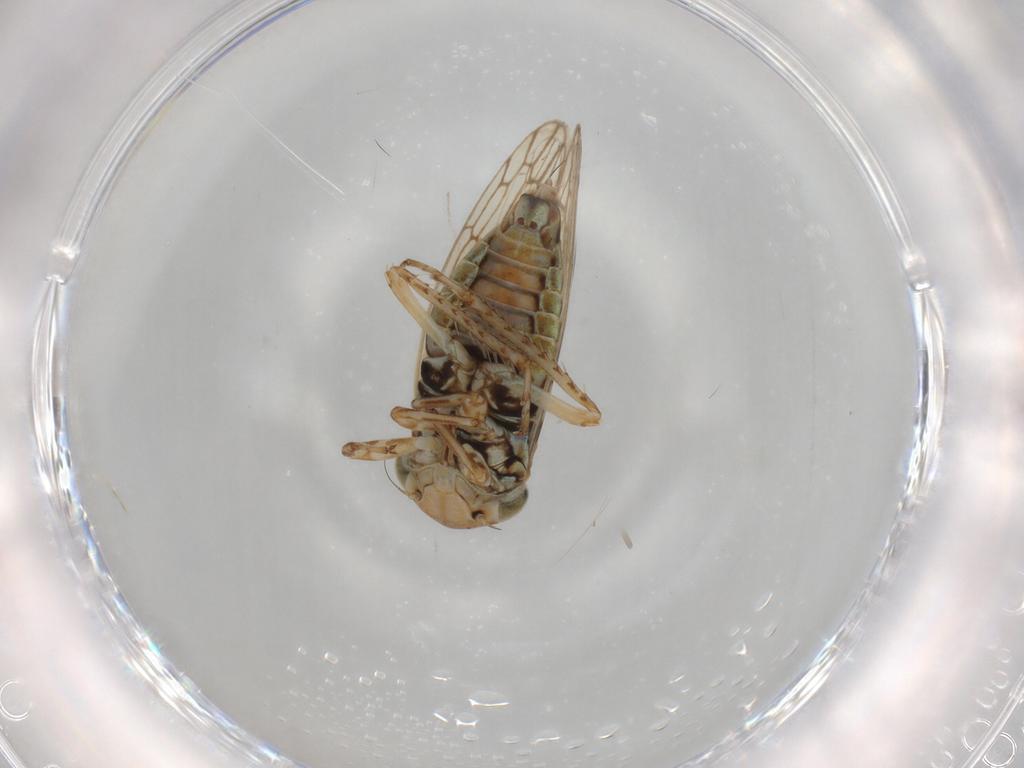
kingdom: Animalia
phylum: Arthropoda
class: Insecta
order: Hemiptera
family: Cicadellidae
